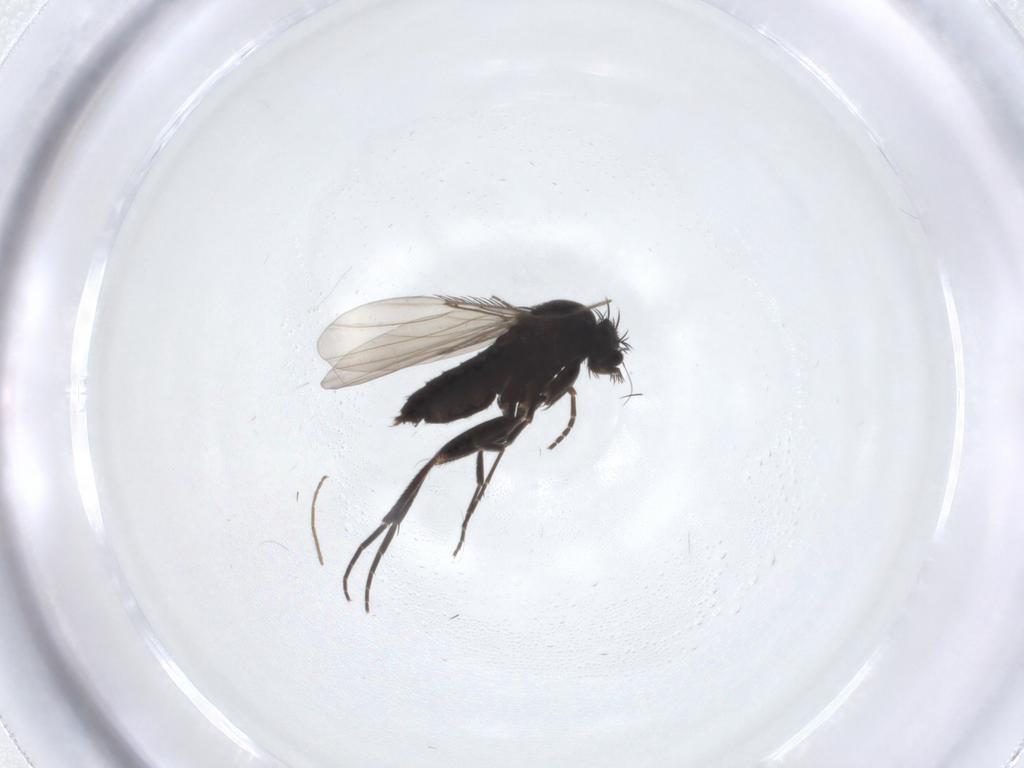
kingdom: Animalia
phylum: Arthropoda
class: Insecta
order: Diptera
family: Phoridae
